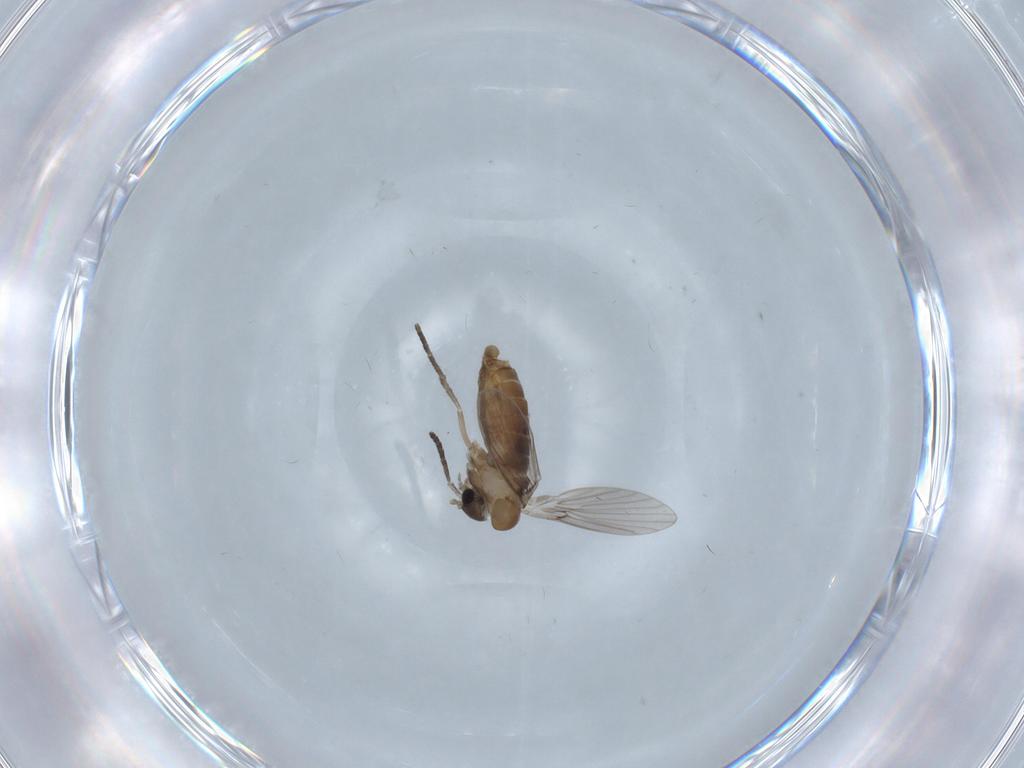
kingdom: Animalia
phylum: Arthropoda
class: Insecta
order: Diptera
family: Psychodidae
